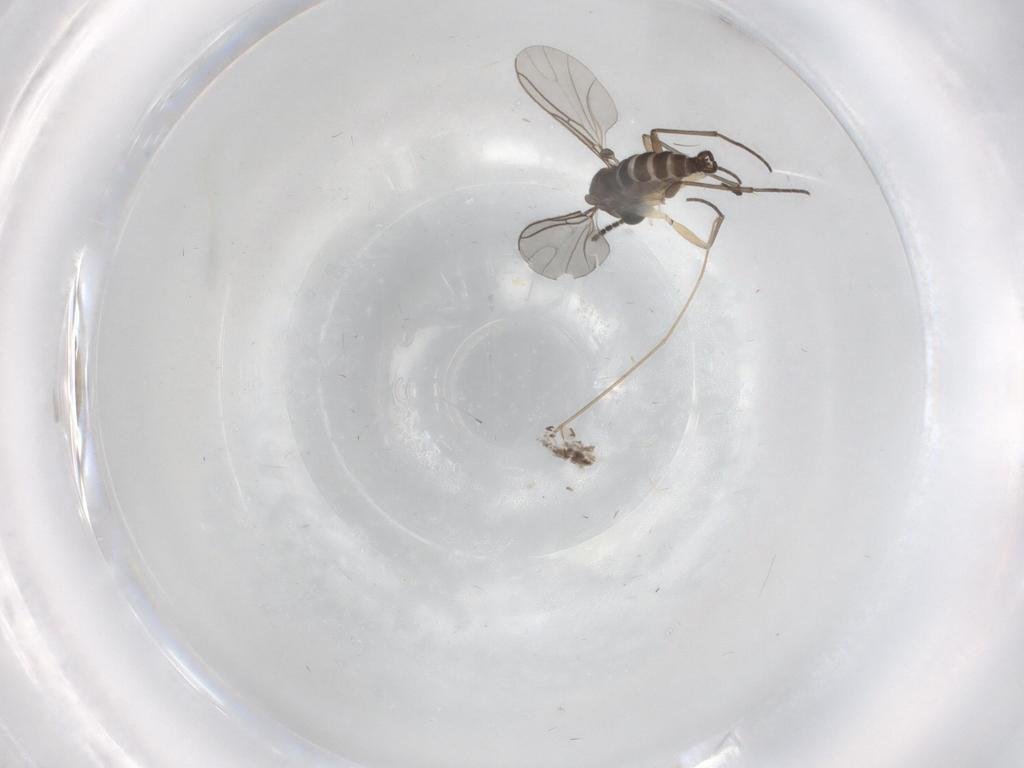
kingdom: Animalia
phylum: Arthropoda
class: Insecta
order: Diptera
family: Sciaridae
